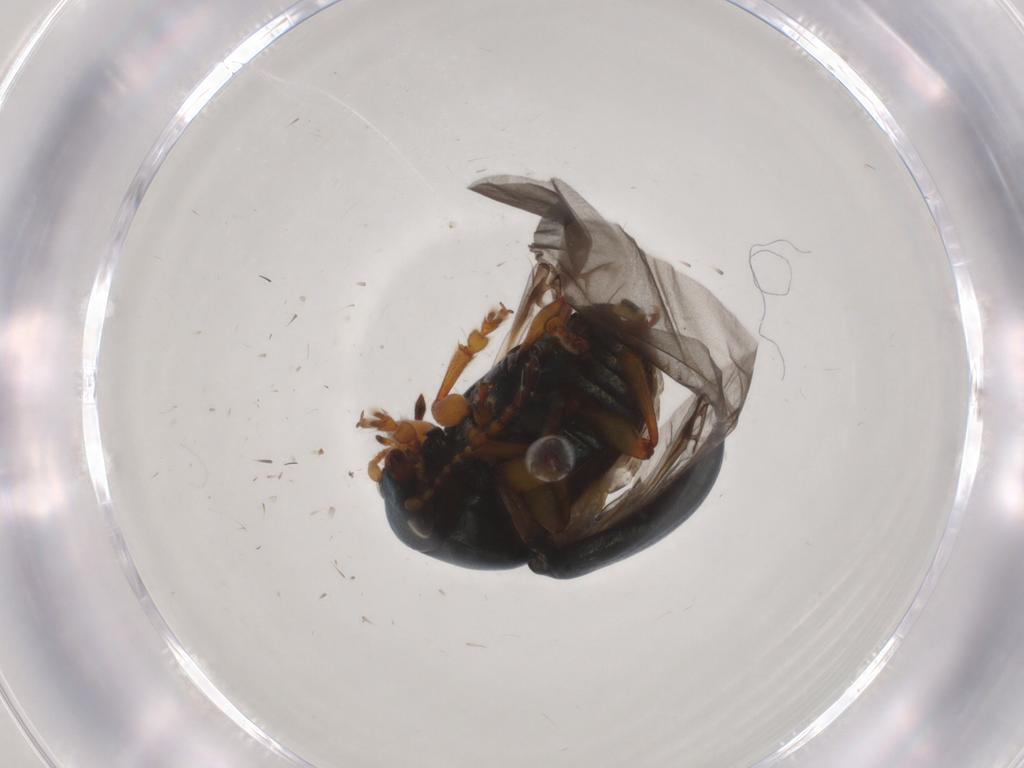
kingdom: Animalia
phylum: Arthropoda
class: Insecta
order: Coleoptera
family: Chrysomelidae
